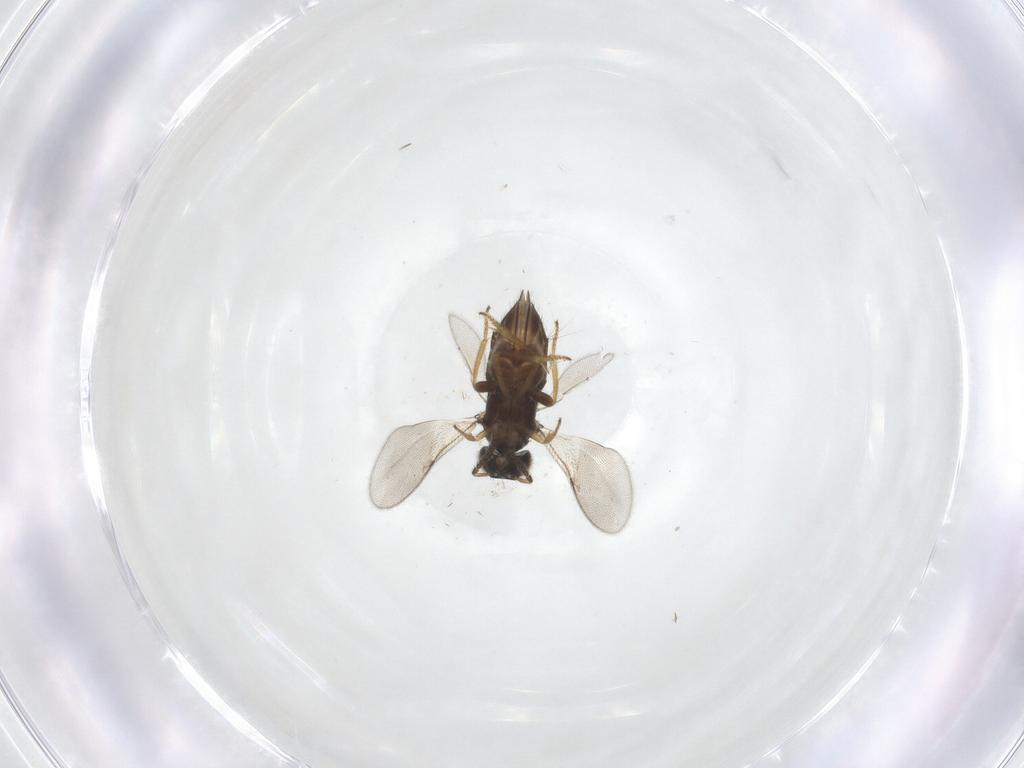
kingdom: Animalia
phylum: Arthropoda
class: Insecta
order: Hymenoptera
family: Encyrtidae
